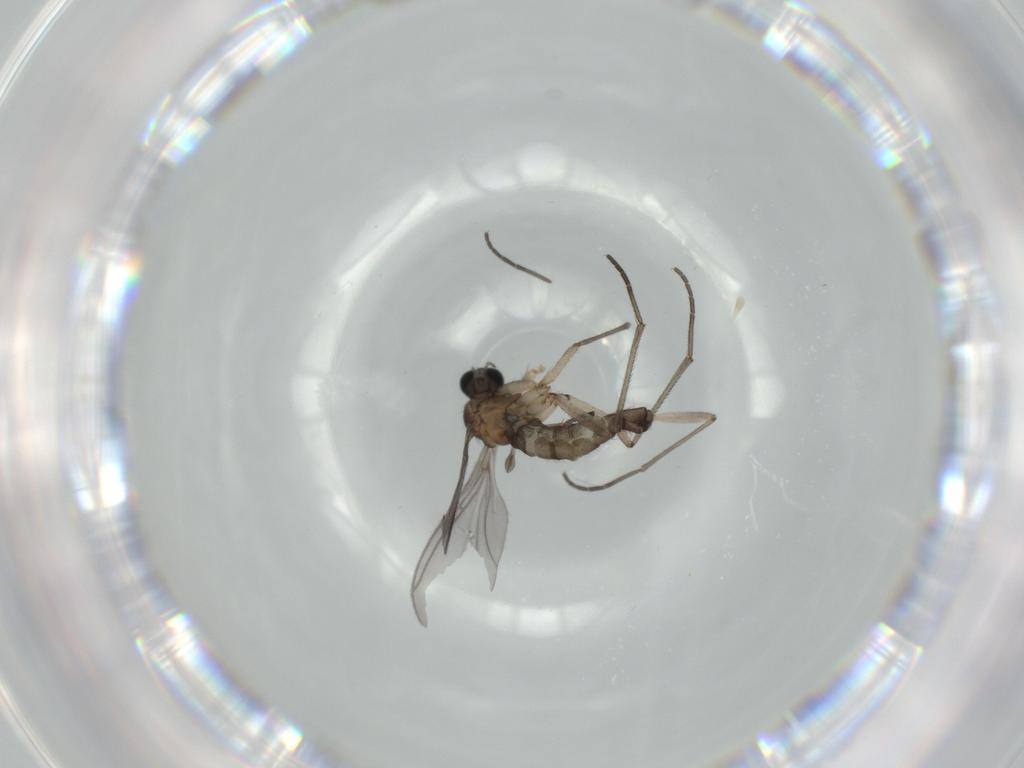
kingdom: Animalia
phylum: Arthropoda
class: Insecta
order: Diptera
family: Sciaridae
